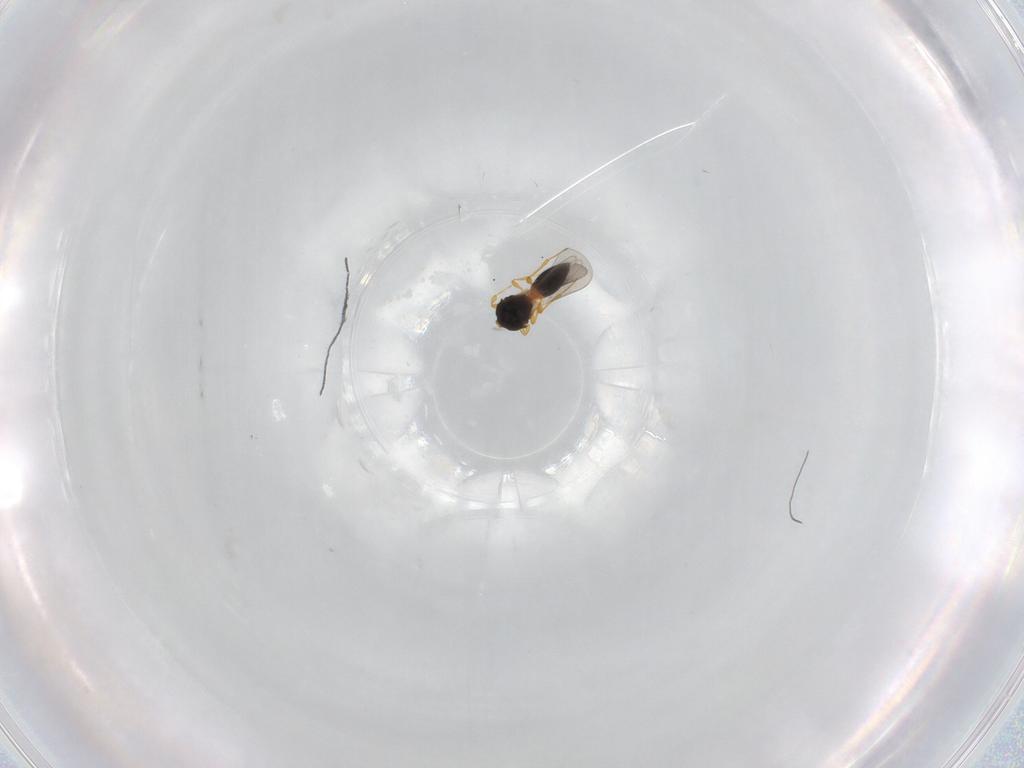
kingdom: Animalia
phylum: Arthropoda
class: Insecta
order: Hymenoptera
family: Platygastridae
